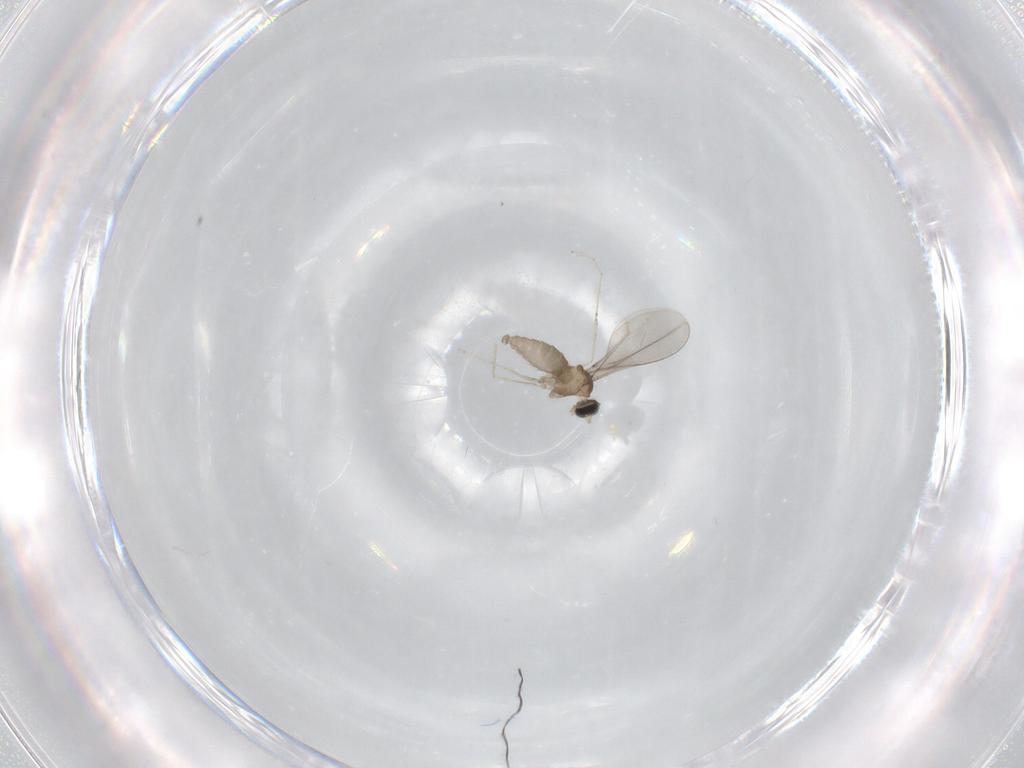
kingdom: Animalia
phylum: Arthropoda
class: Insecta
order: Diptera
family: Cecidomyiidae
